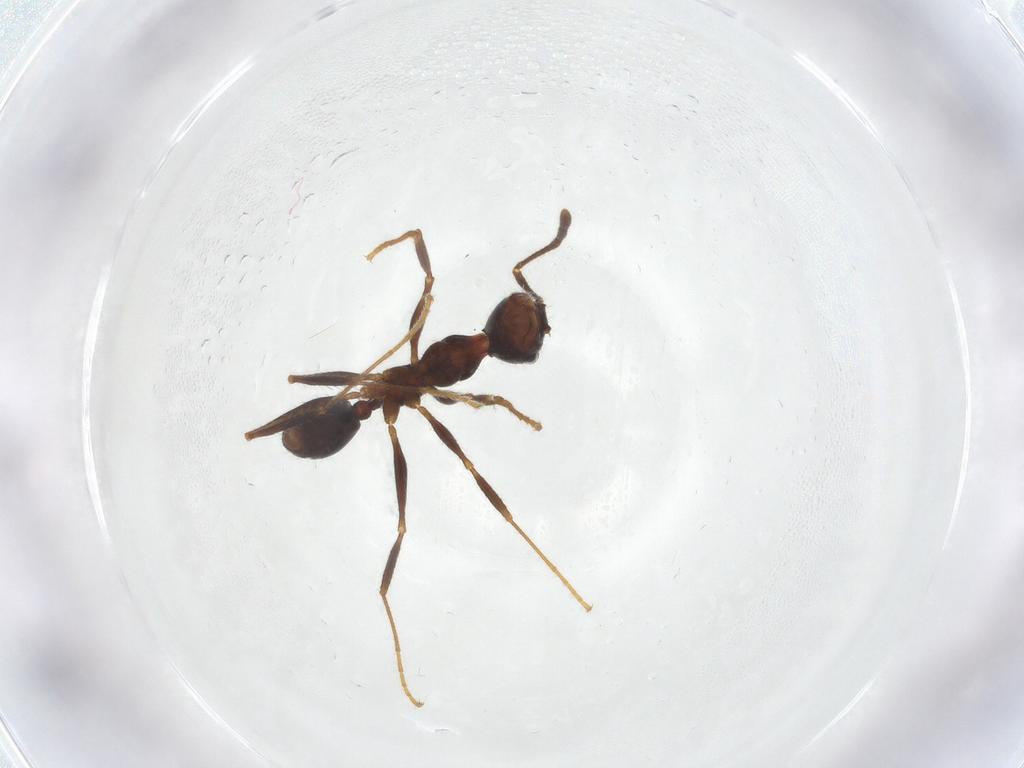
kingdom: Animalia
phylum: Arthropoda
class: Insecta
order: Hymenoptera
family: Formicidae
